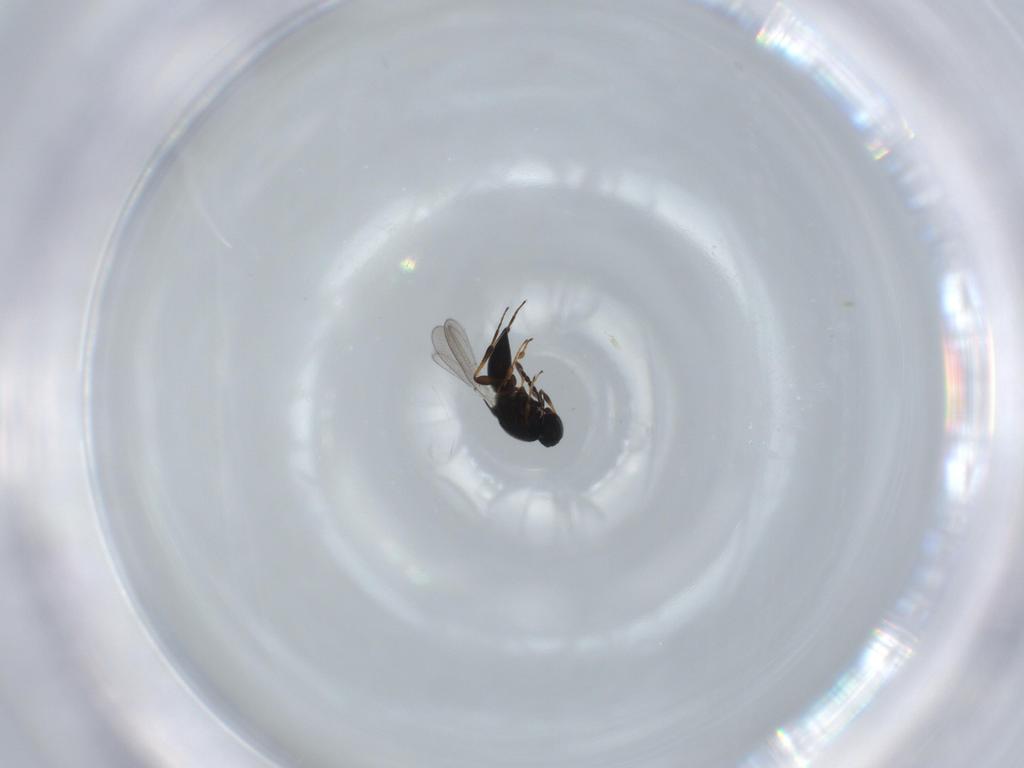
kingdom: Animalia
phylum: Arthropoda
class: Insecta
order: Hymenoptera
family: Platygastridae
